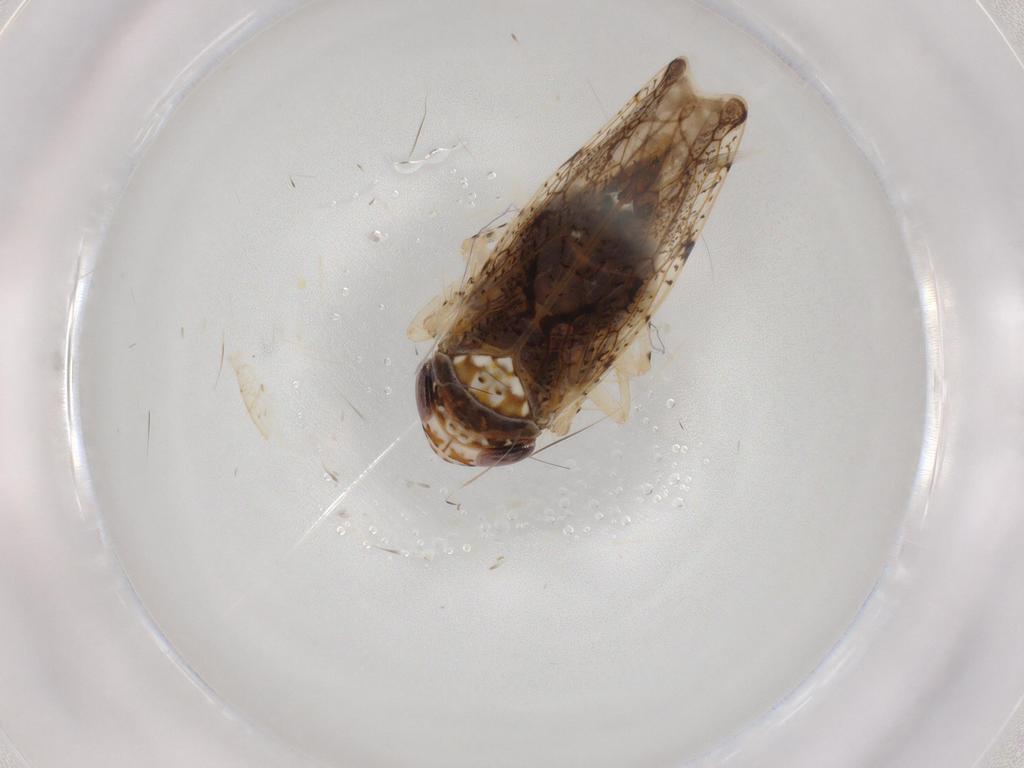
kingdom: Animalia
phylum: Arthropoda
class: Insecta
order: Hemiptera
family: Cicadellidae
